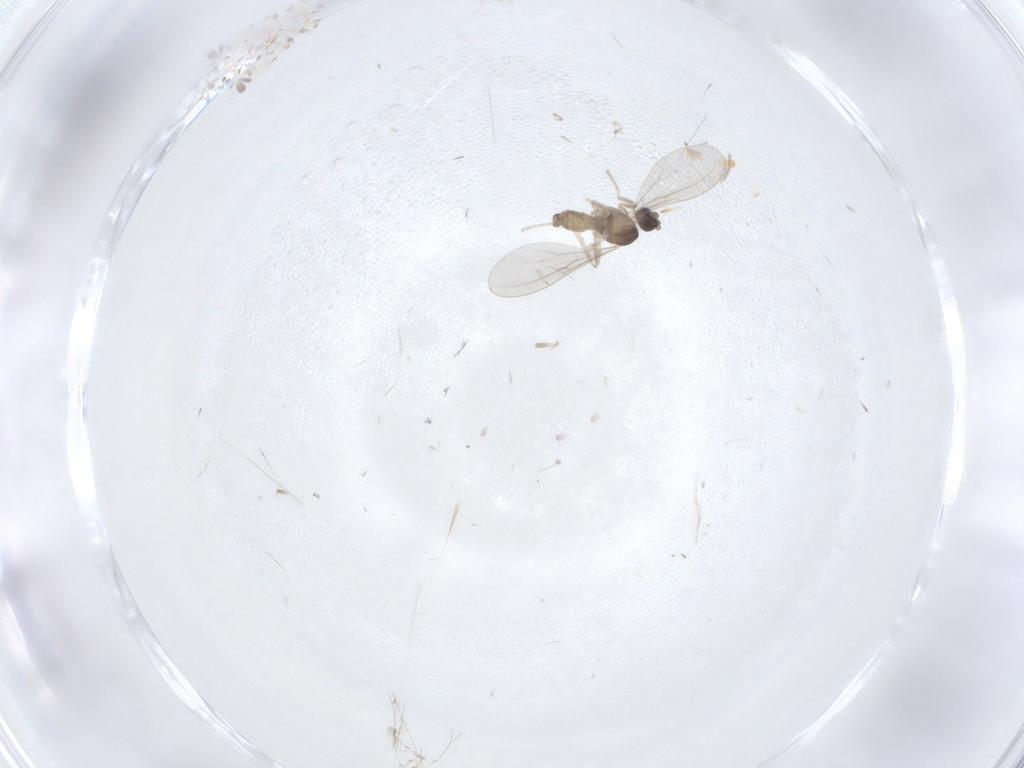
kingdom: Animalia
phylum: Arthropoda
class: Insecta
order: Diptera
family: Cecidomyiidae
